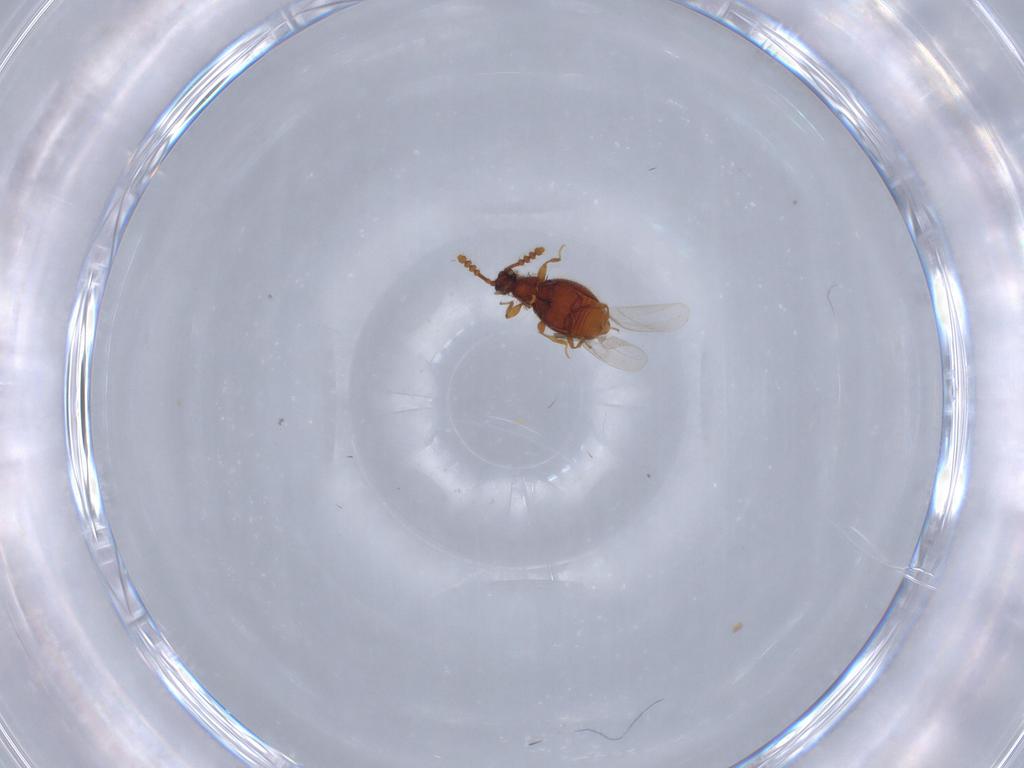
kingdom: Animalia
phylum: Arthropoda
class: Insecta
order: Coleoptera
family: Staphylinidae
